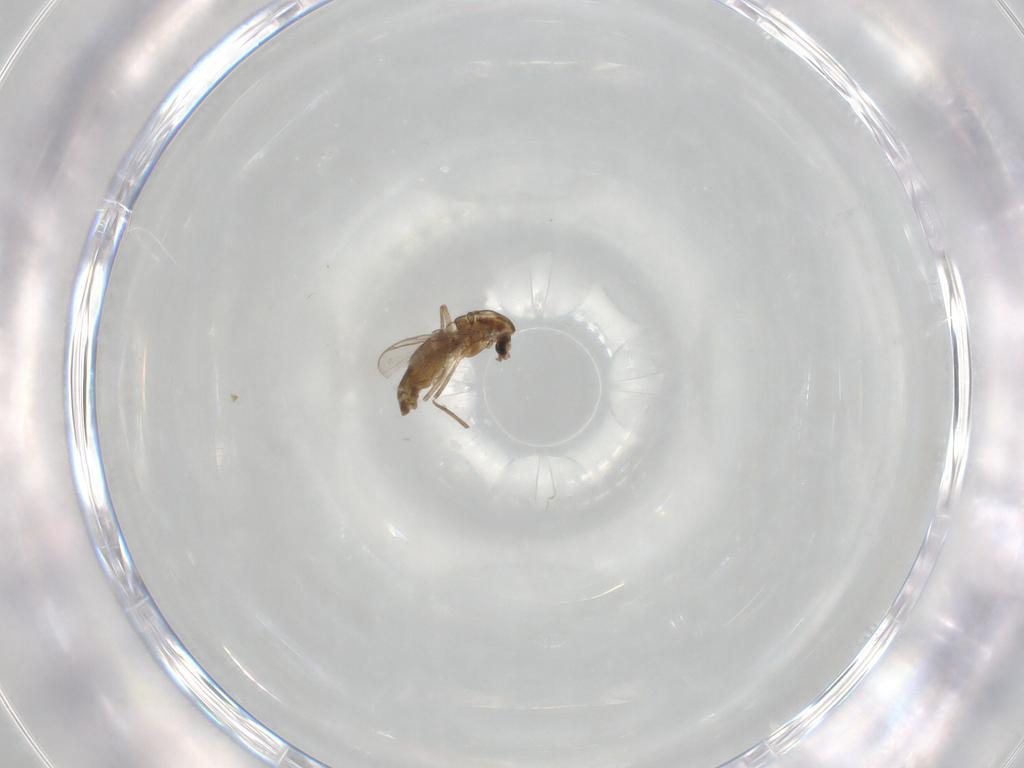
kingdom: Animalia
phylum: Arthropoda
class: Insecta
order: Diptera
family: Chironomidae
